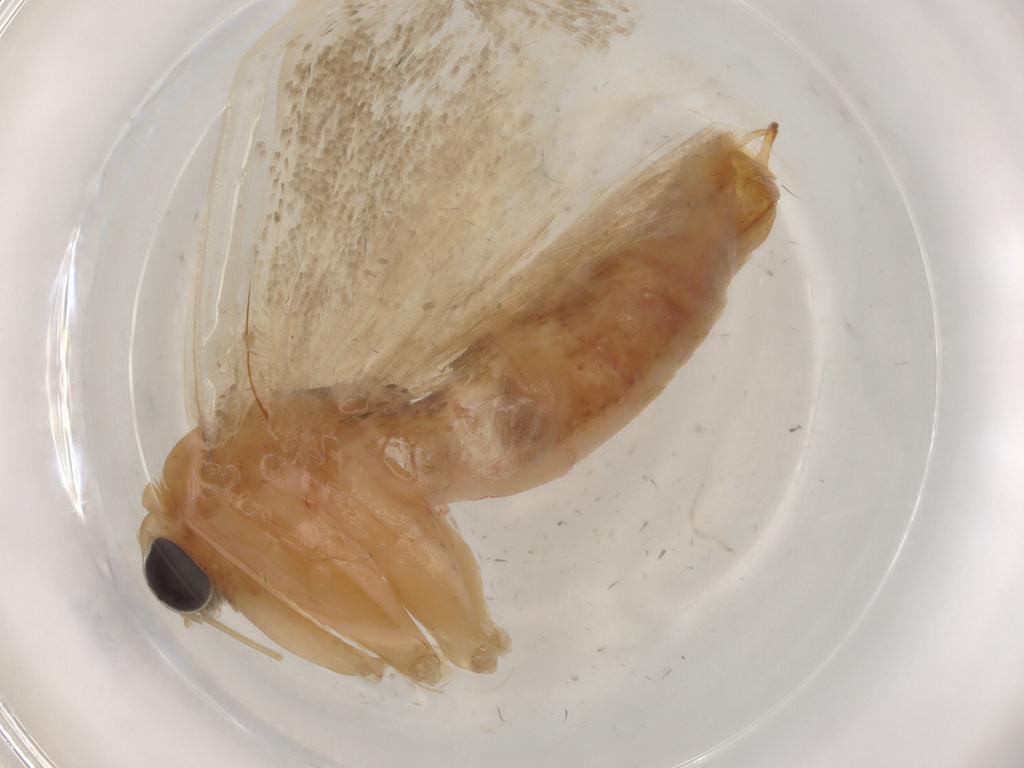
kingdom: Animalia
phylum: Arthropoda
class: Insecta
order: Lepidoptera
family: Erebidae
